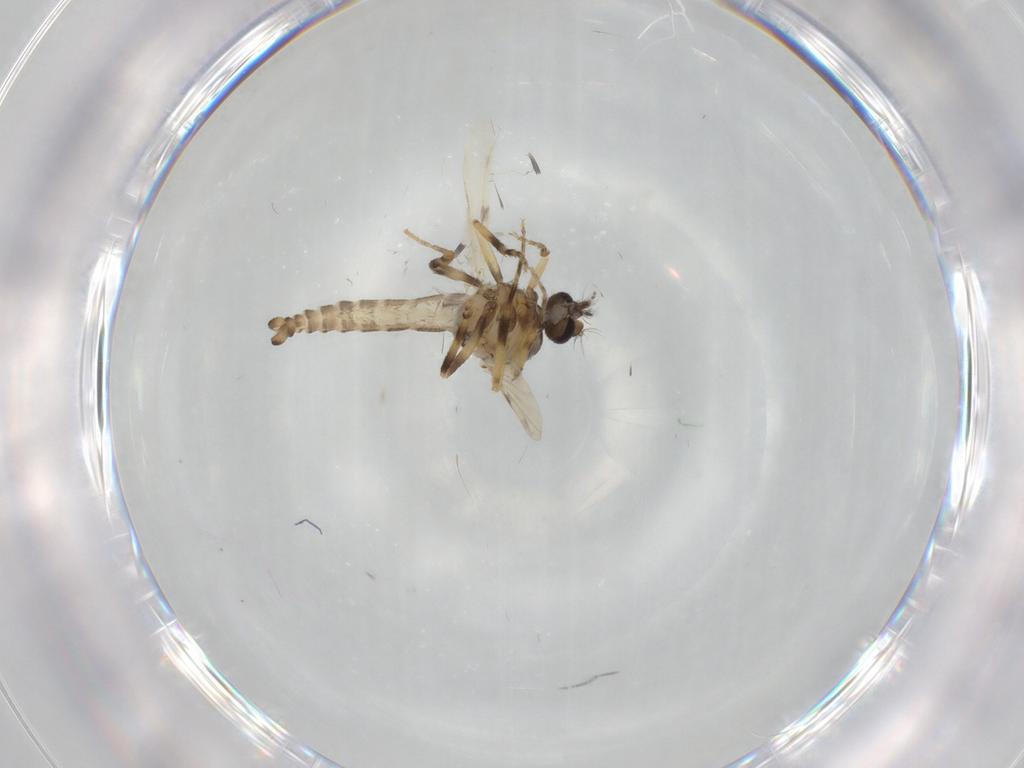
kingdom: Animalia
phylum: Arthropoda
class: Insecta
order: Diptera
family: Ceratopogonidae
